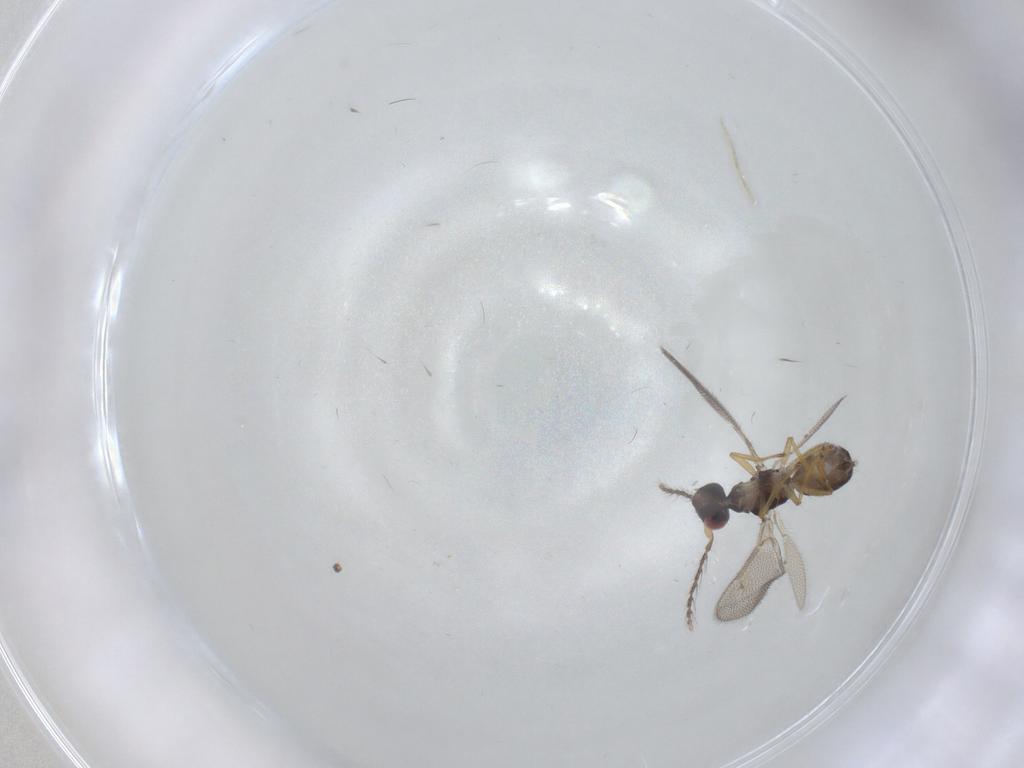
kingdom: Animalia
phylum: Arthropoda
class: Insecta
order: Hymenoptera
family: Eulophidae
